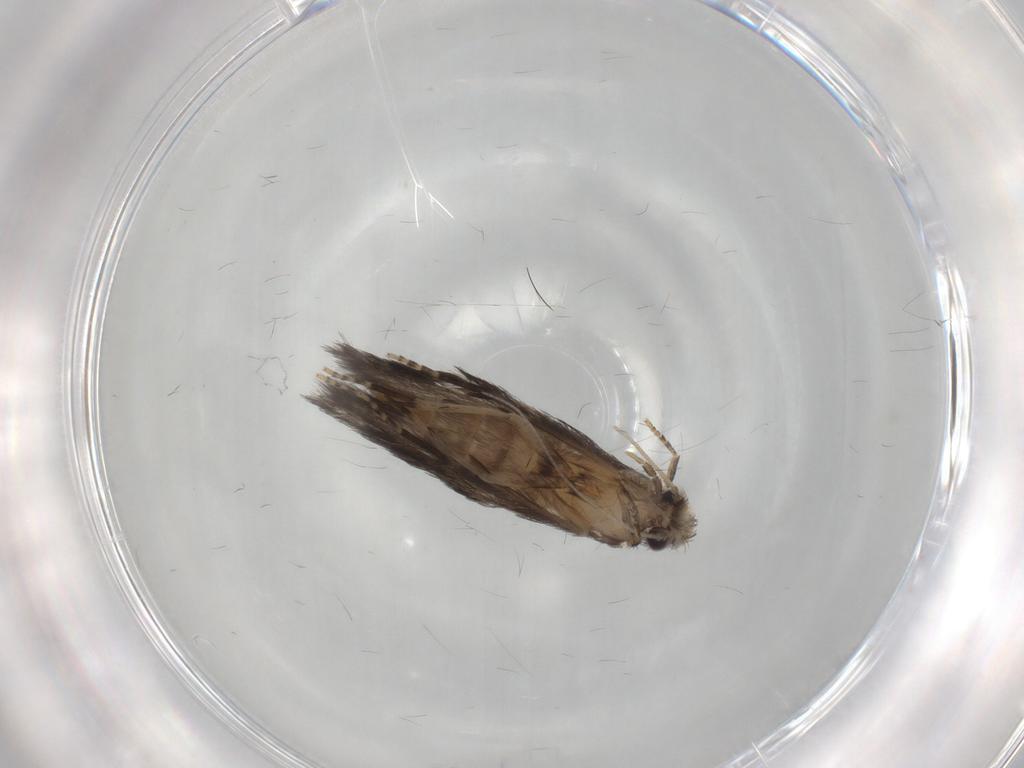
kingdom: Animalia
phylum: Arthropoda
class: Insecta
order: Trichoptera
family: Hydroptilidae
